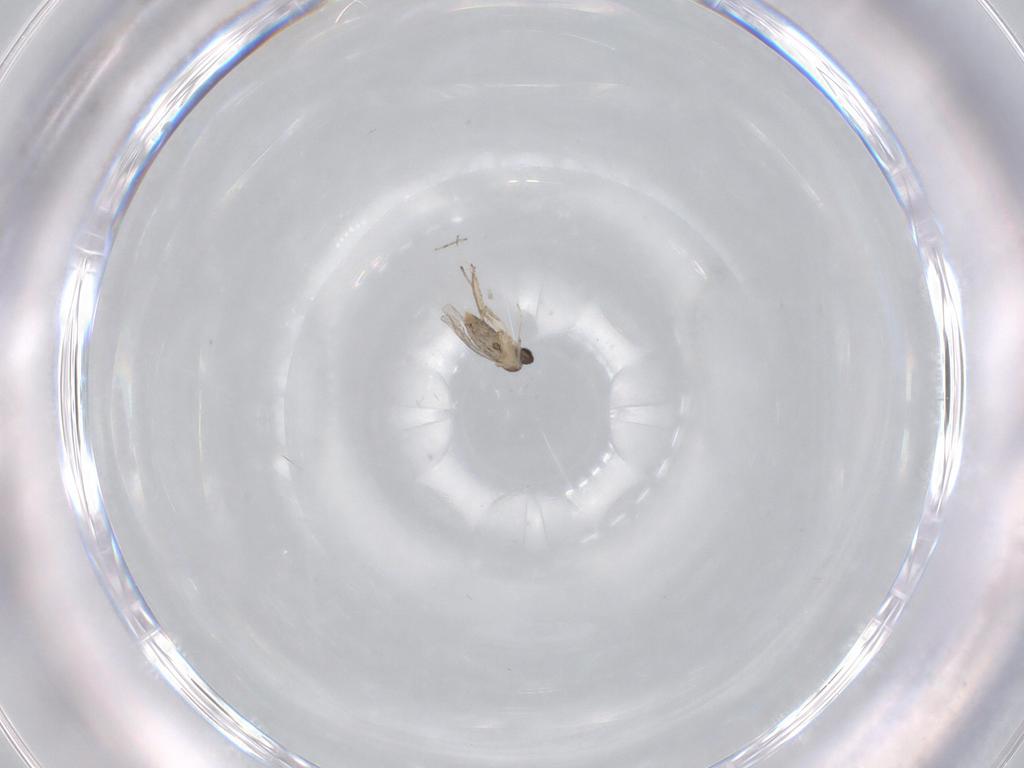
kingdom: Animalia
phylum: Arthropoda
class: Insecta
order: Diptera
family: Cecidomyiidae
